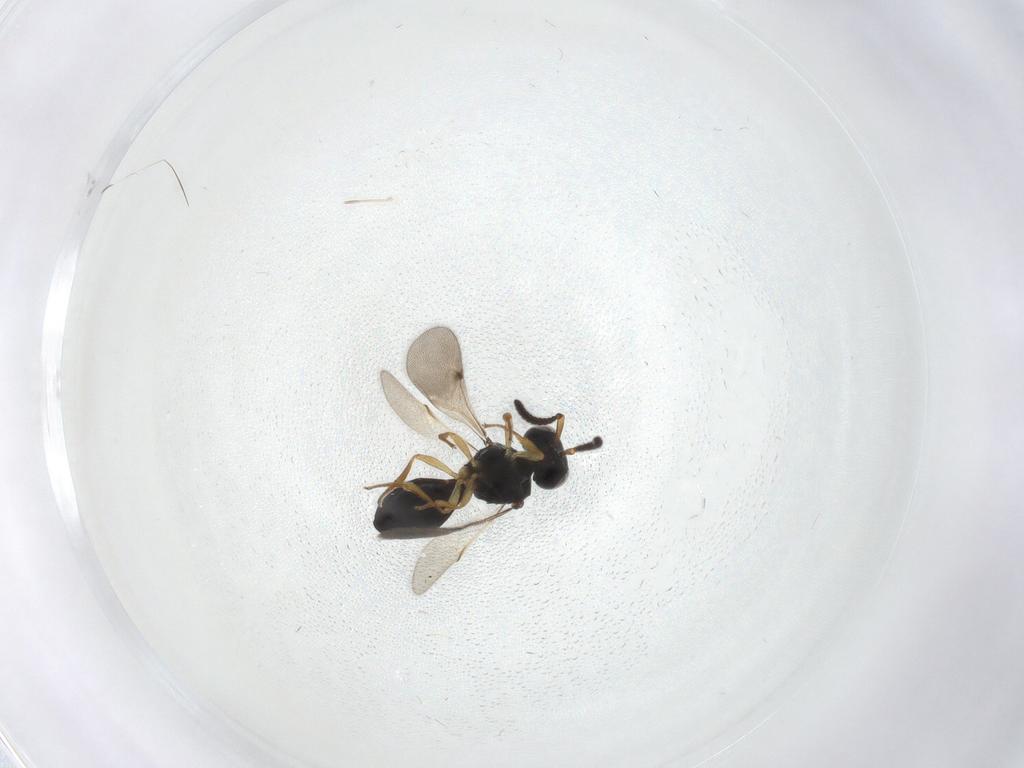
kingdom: Animalia
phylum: Arthropoda
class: Insecta
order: Hymenoptera
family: Scelionidae
